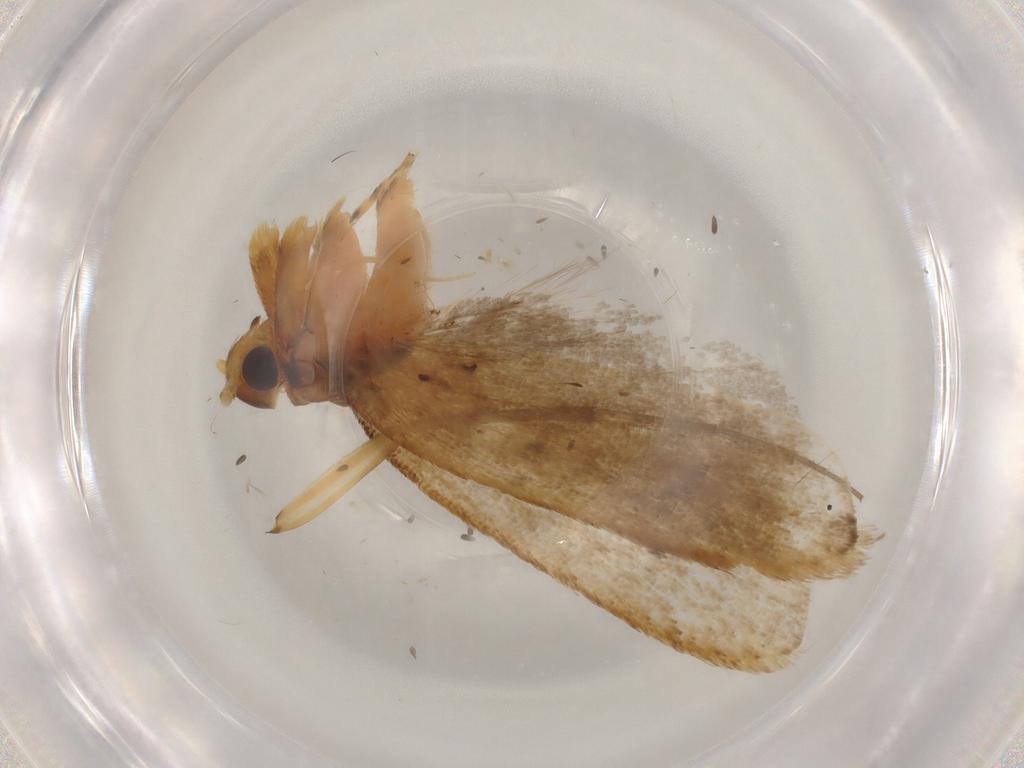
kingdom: Animalia
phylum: Arthropoda
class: Insecta
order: Lepidoptera
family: Lecithoceridae
